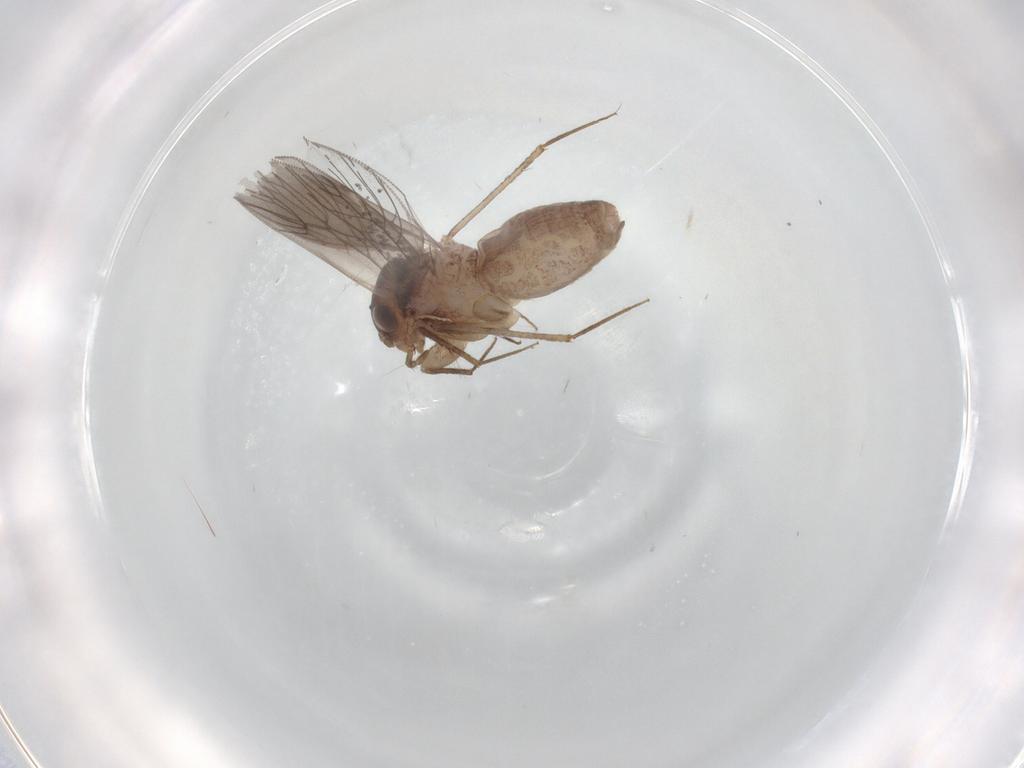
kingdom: Animalia
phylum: Arthropoda
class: Insecta
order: Psocodea
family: Lepidopsocidae
